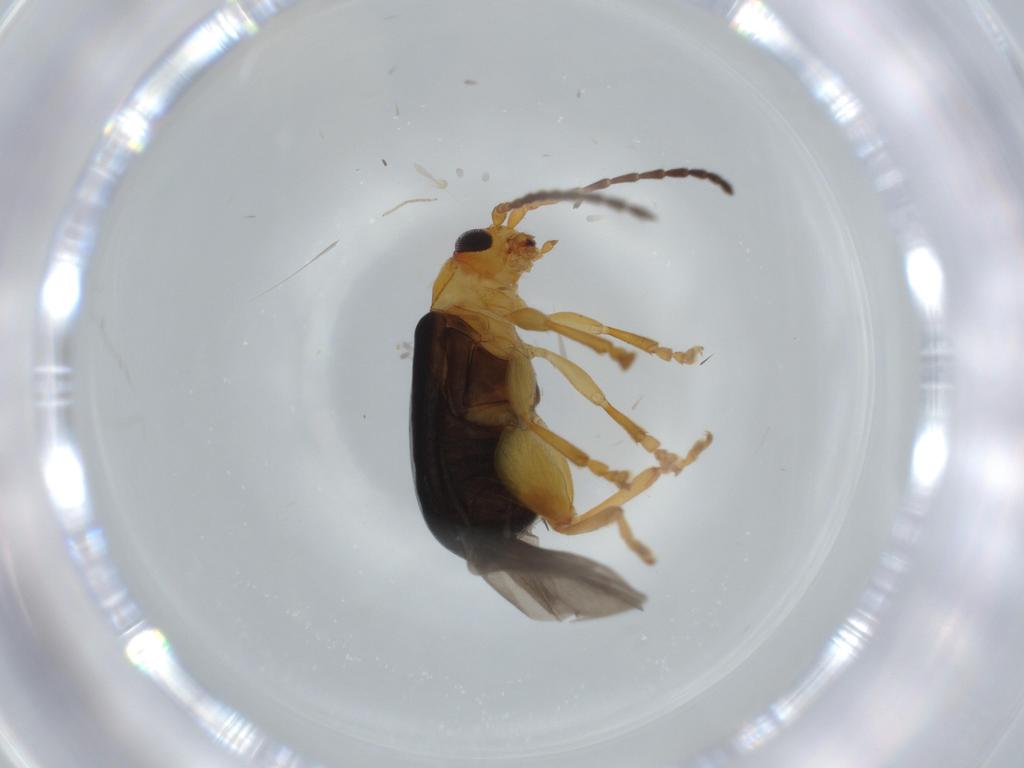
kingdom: Animalia
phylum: Arthropoda
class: Insecta
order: Coleoptera
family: Chrysomelidae
